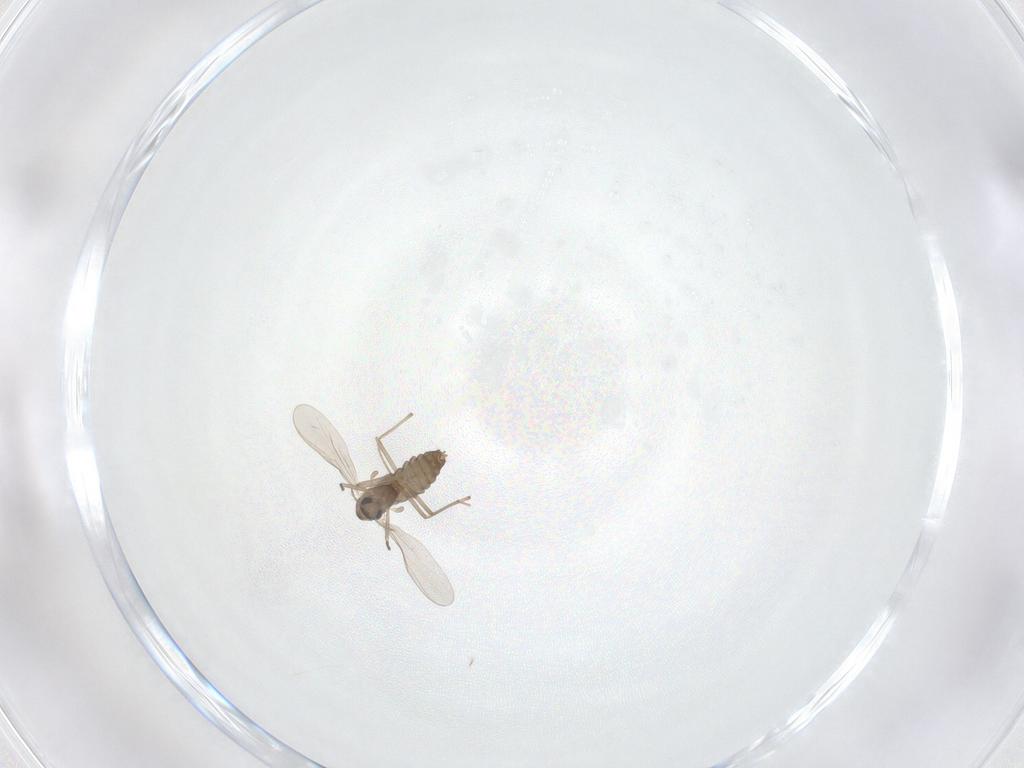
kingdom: Animalia
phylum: Arthropoda
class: Insecta
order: Diptera
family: Chironomidae
